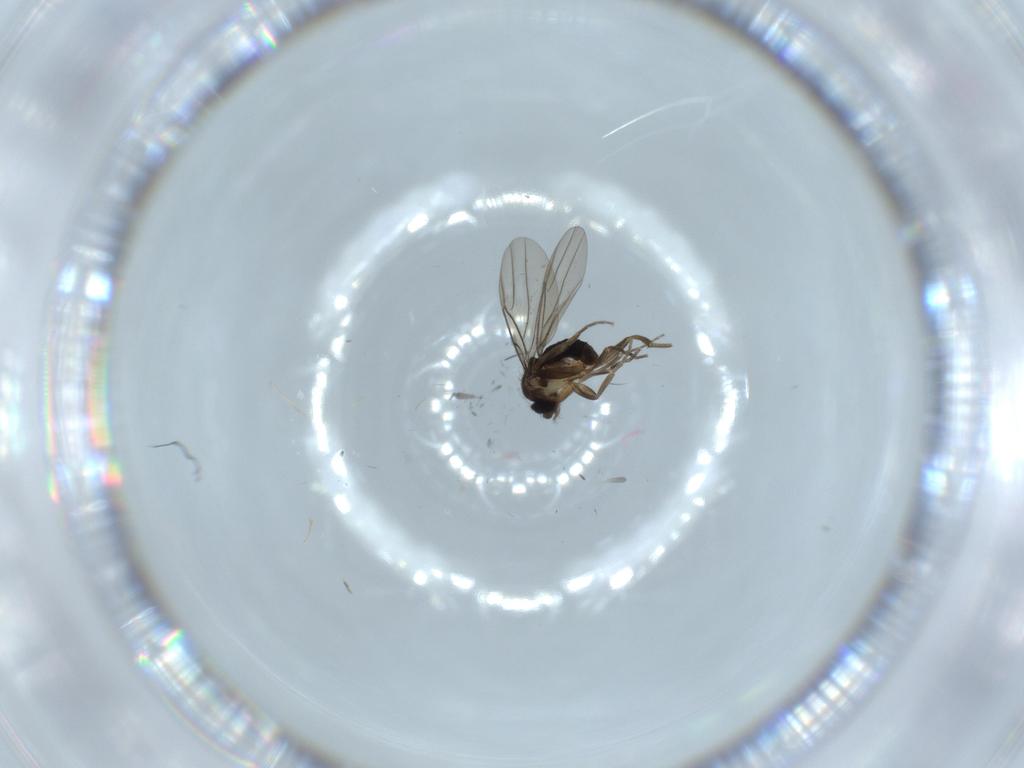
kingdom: Animalia
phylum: Arthropoda
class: Insecta
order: Diptera
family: Phoridae
